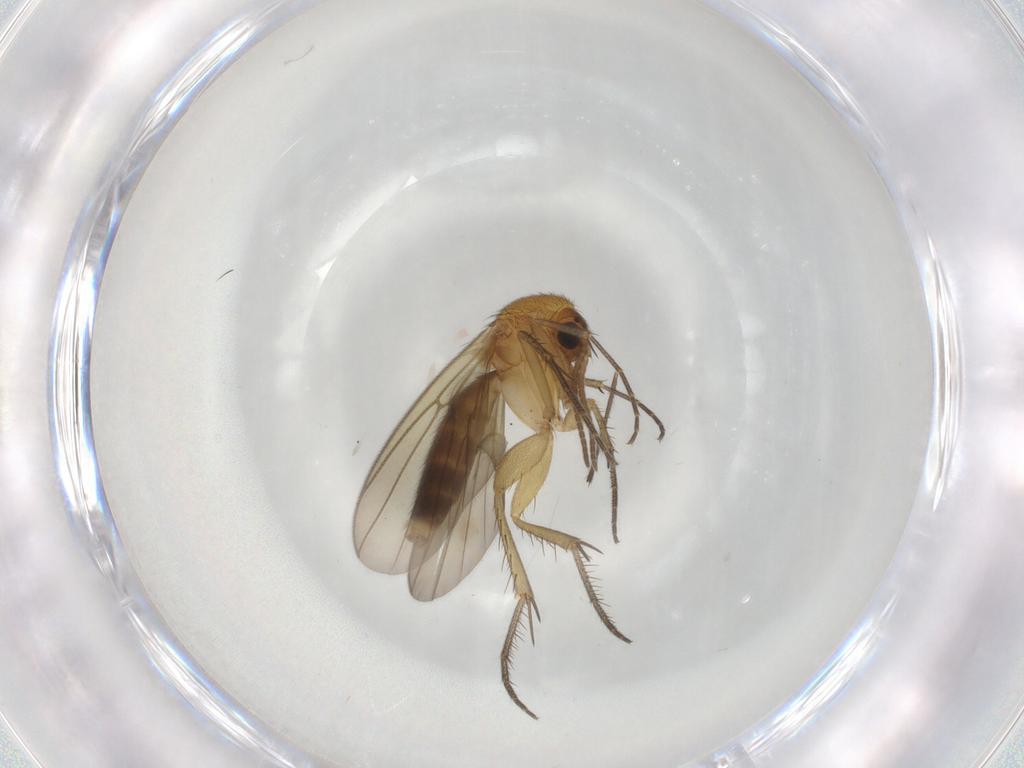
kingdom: Animalia
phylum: Arthropoda
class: Insecta
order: Diptera
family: Mycetophilidae
